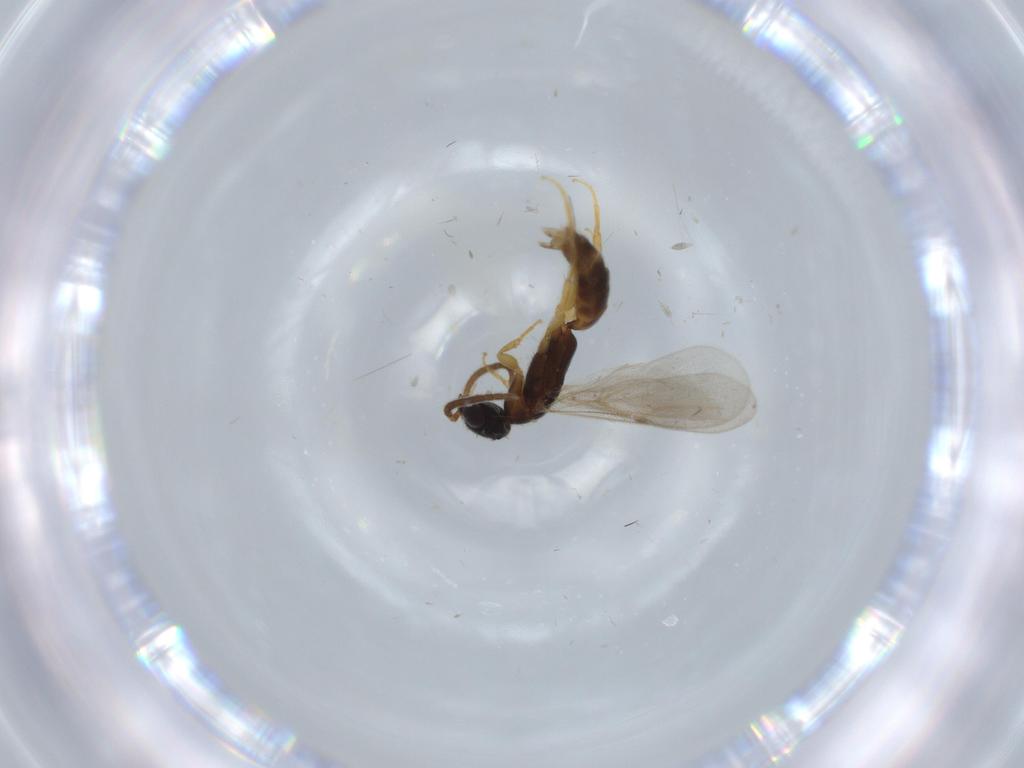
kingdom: Animalia
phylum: Arthropoda
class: Insecta
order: Hymenoptera
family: Bethylidae
